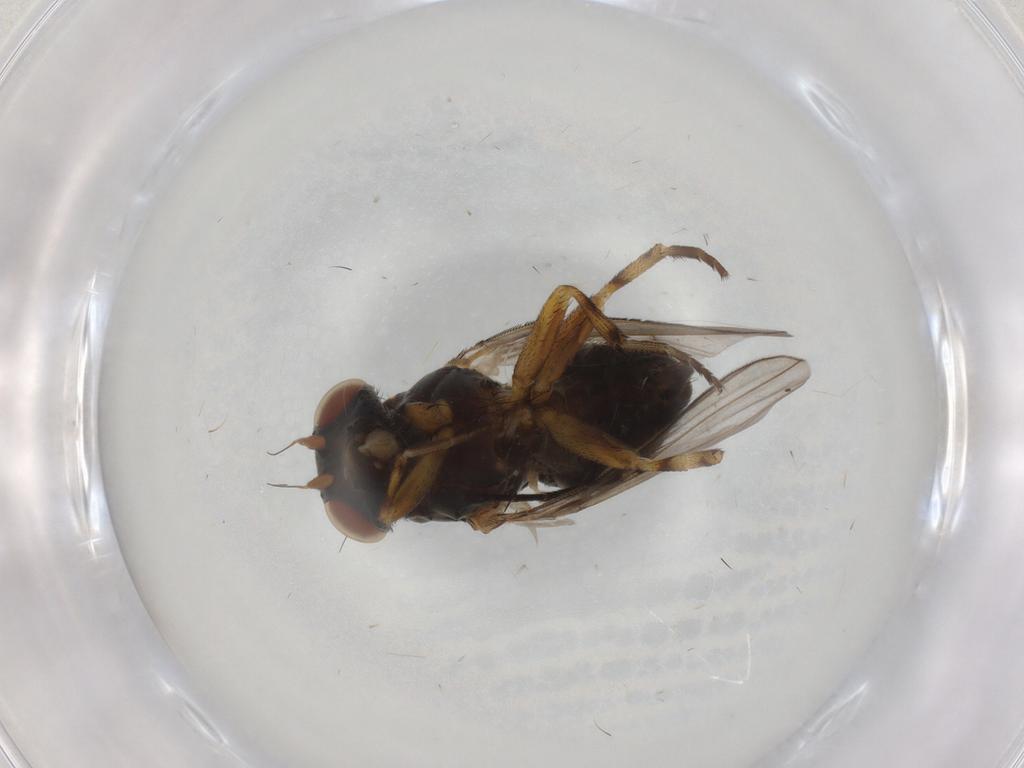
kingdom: Animalia
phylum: Arthropoda
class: Insecta
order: Diptera
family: Chloropidae
